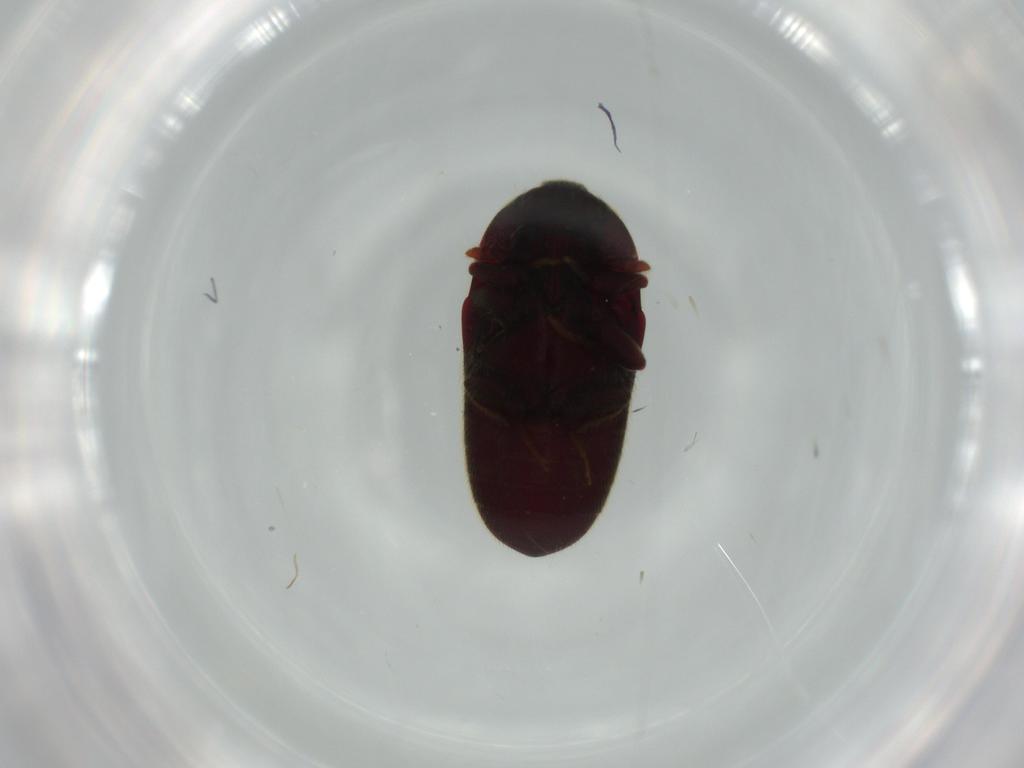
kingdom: Animalia
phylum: Arthropoda
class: Insecta
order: Coleoptera
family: Throscidae
